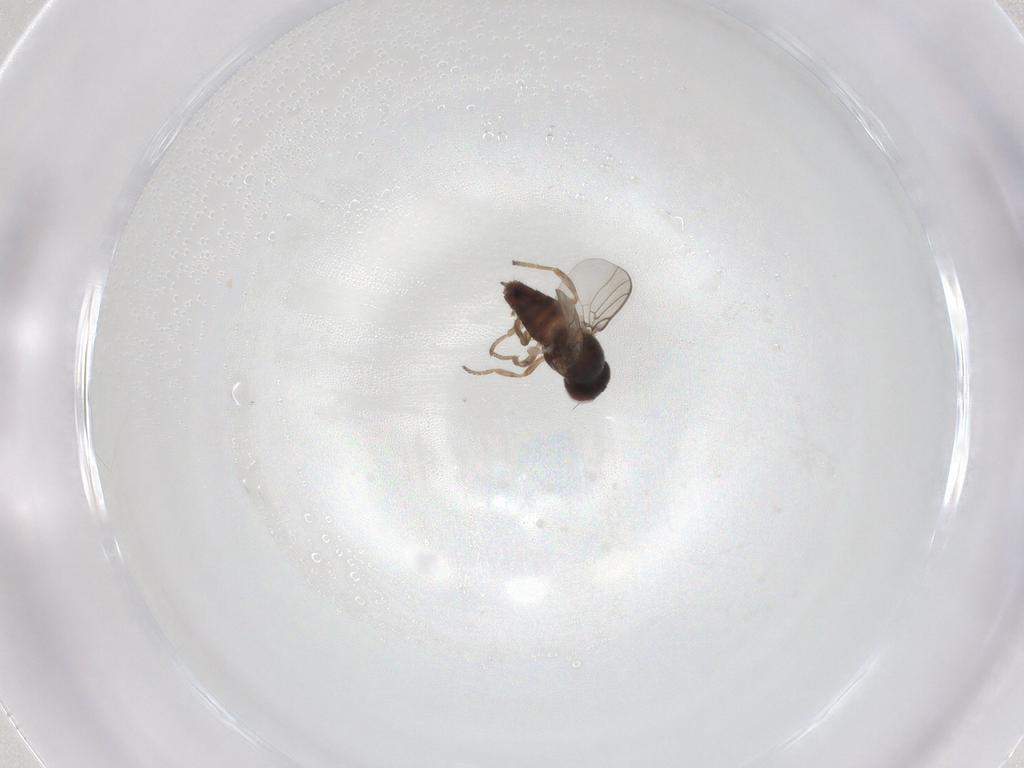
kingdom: Animalia
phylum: Arthropoda
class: Insecta
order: Diptera
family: Chloropidae
